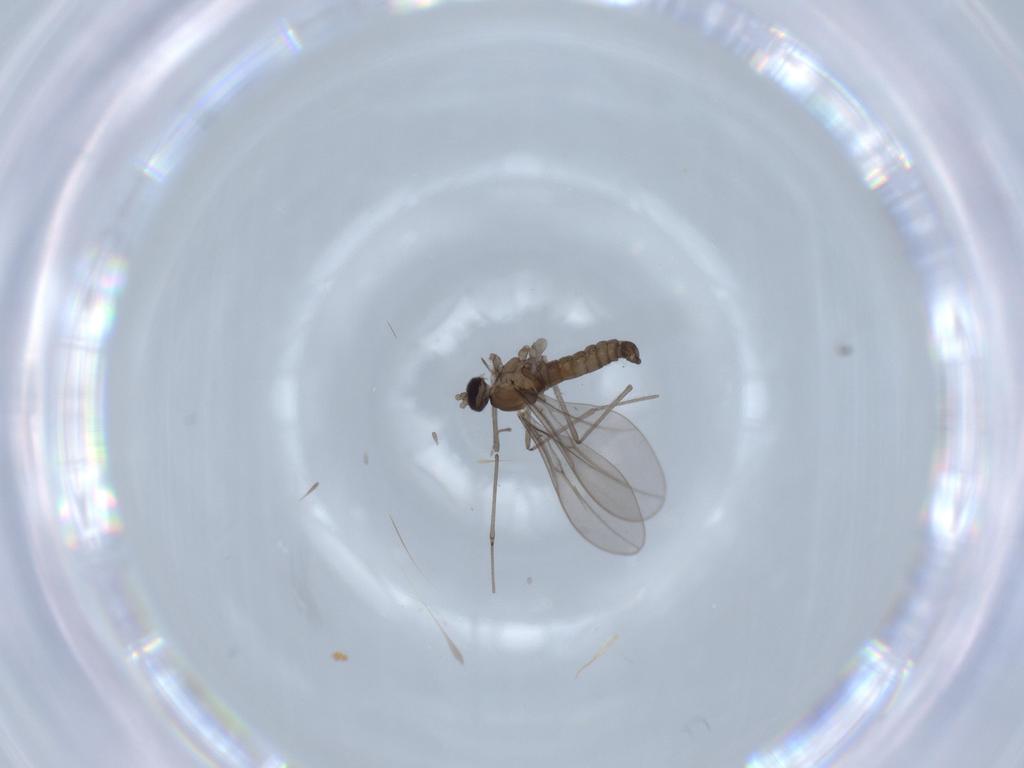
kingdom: Animalia
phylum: Arthropoda
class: Insecta
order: Diptera
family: Cecidomyiidae
